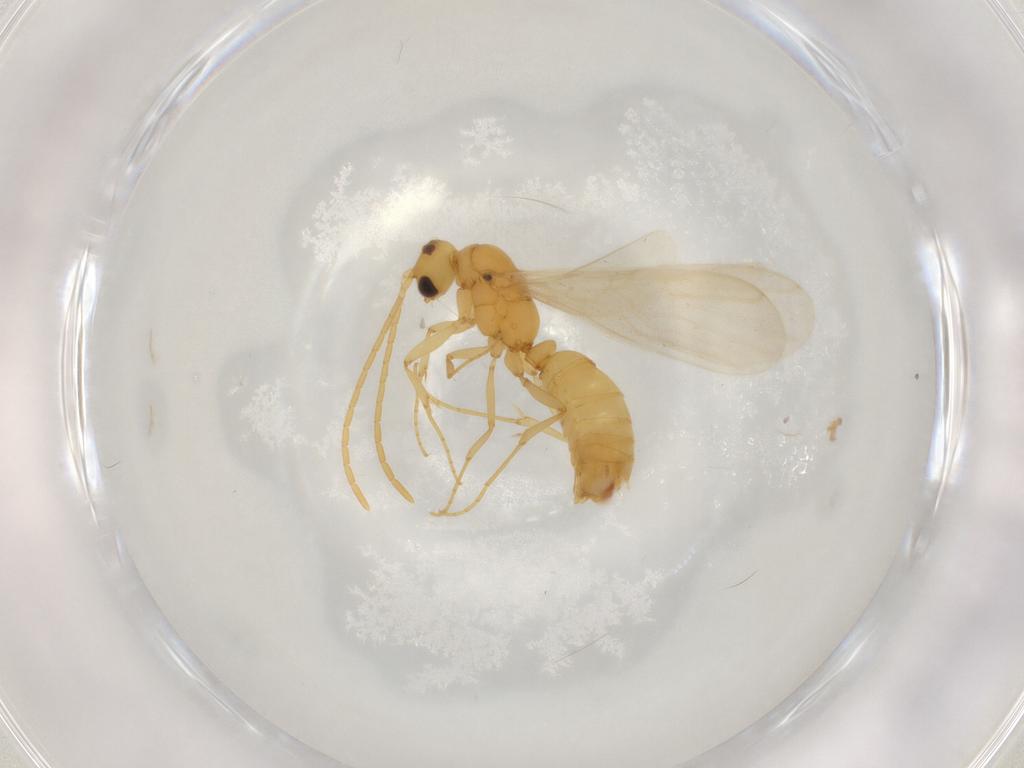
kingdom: Animalia
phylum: Arthropoda
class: Insecta
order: Hymenoptera
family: Formicidae
